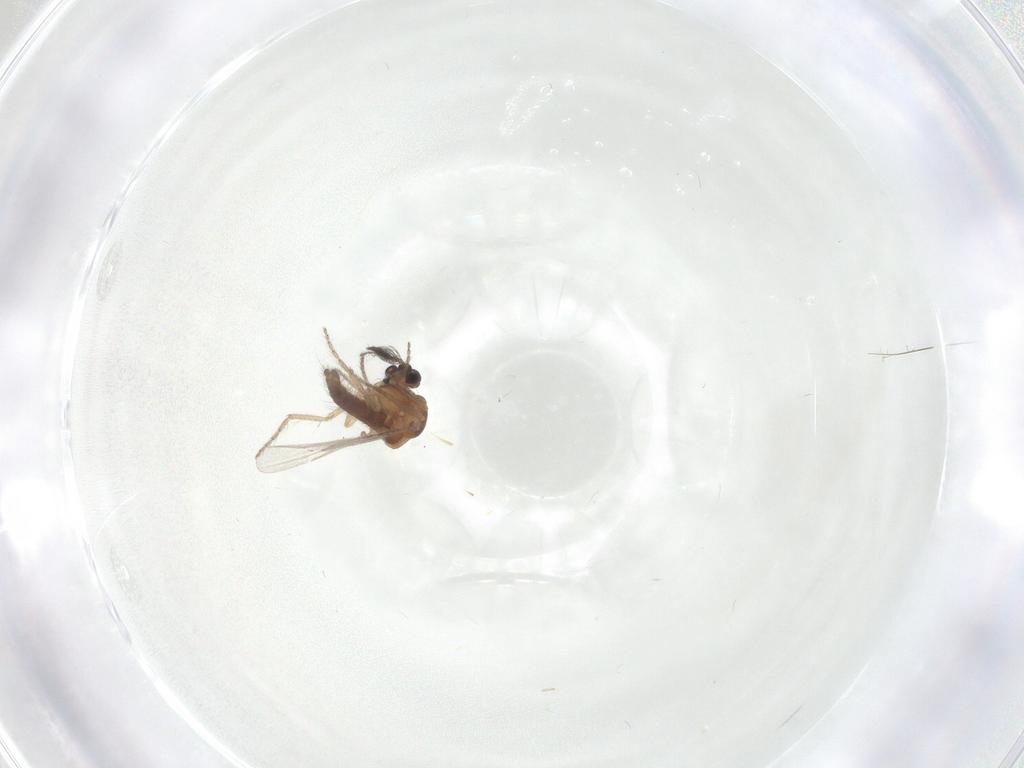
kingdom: Animalia
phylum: Arthropoda
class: Insecta
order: Diptera
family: Ceratopogonidae
